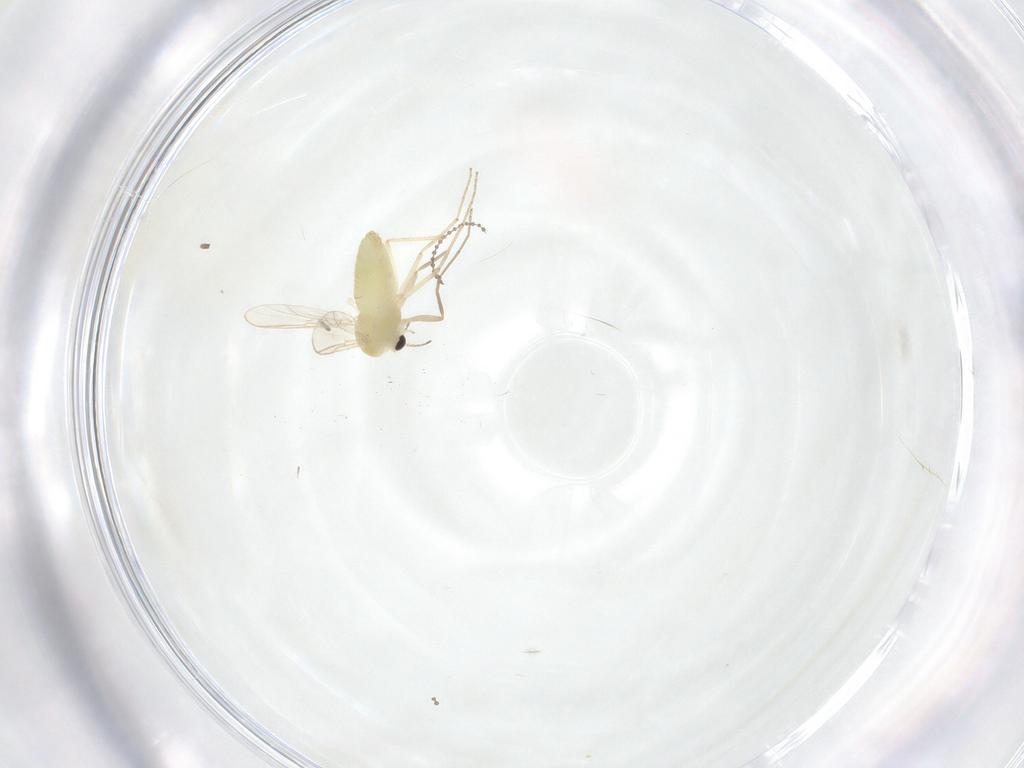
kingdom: Animalia
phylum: Arthropoda
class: Insecta
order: Diptera
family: Chironomidae
